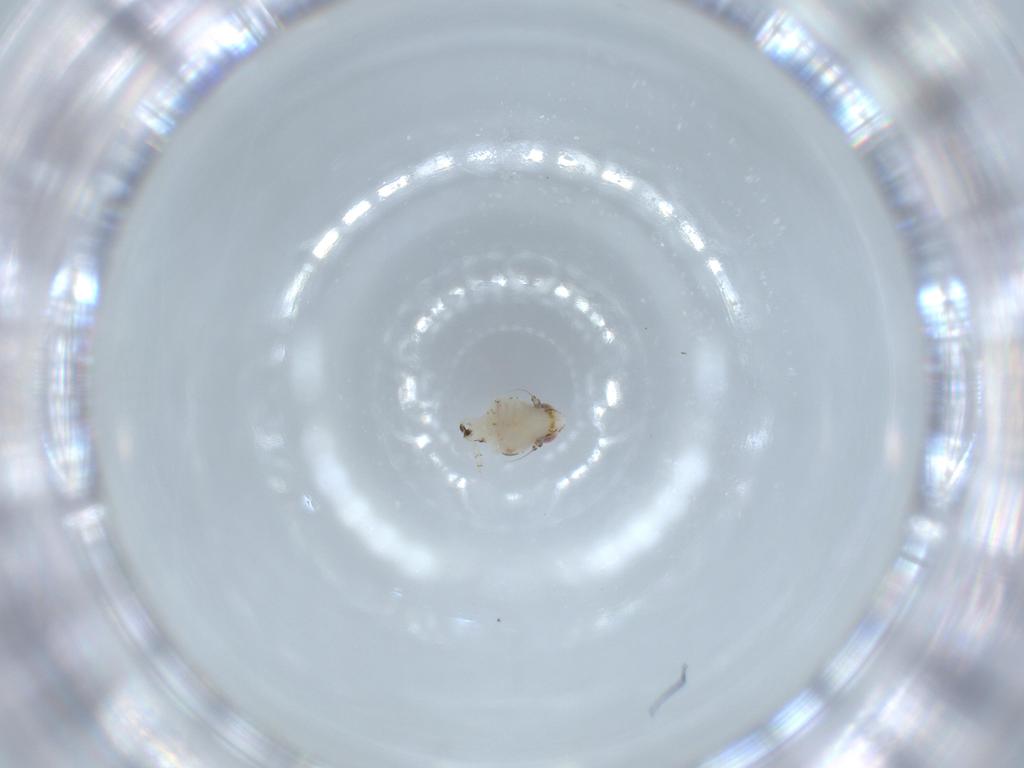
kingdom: Animalia
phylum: Arthropoda
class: Insecta
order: Hemiptera
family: Nogodinidae
